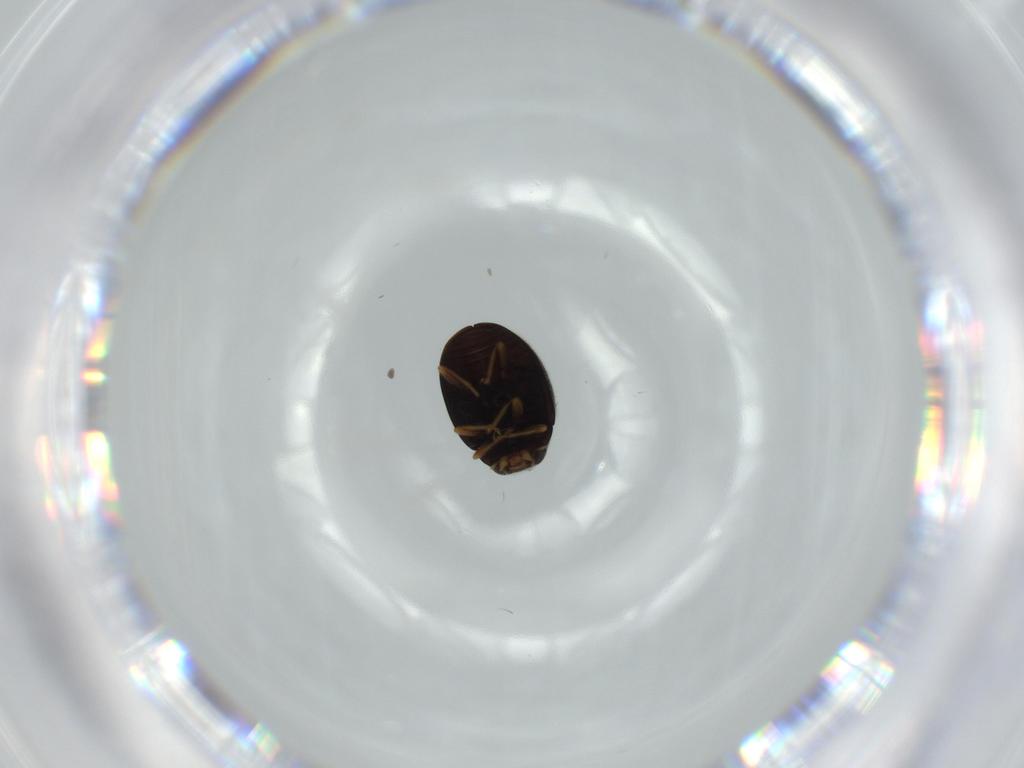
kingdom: Animalia
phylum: Arthropoda
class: Insecta
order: Coleoptera
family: Coccinellidae
